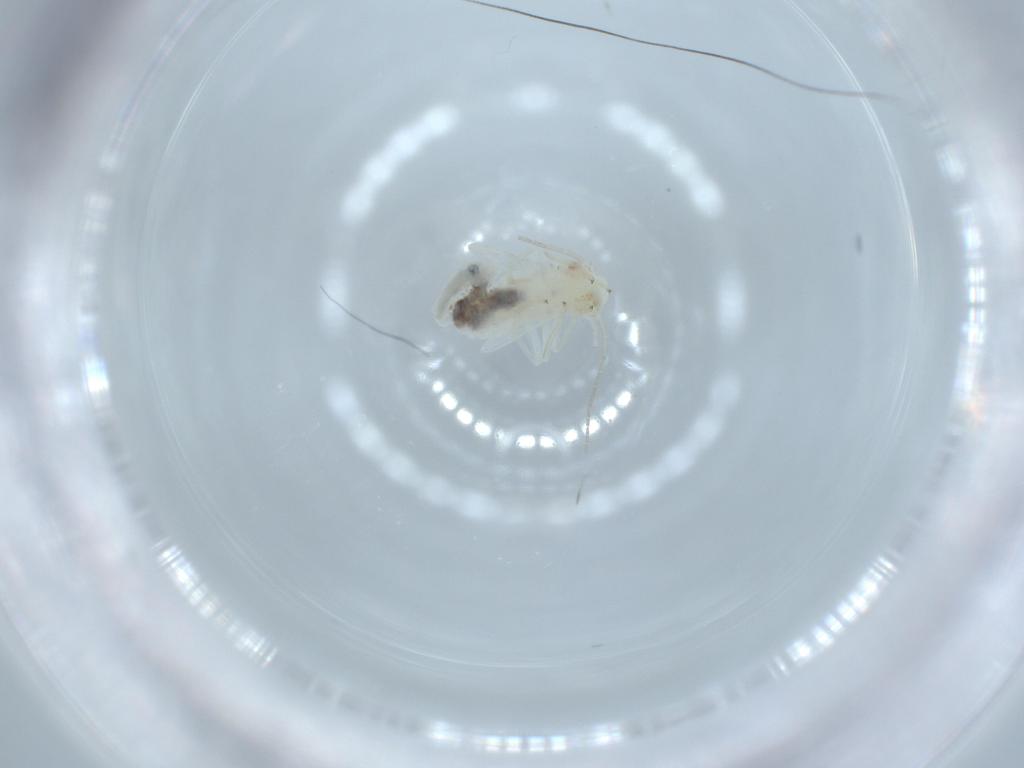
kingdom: Animalia
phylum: Arthropoda
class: Insecta
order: Psocodea
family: Caeciliusidae
